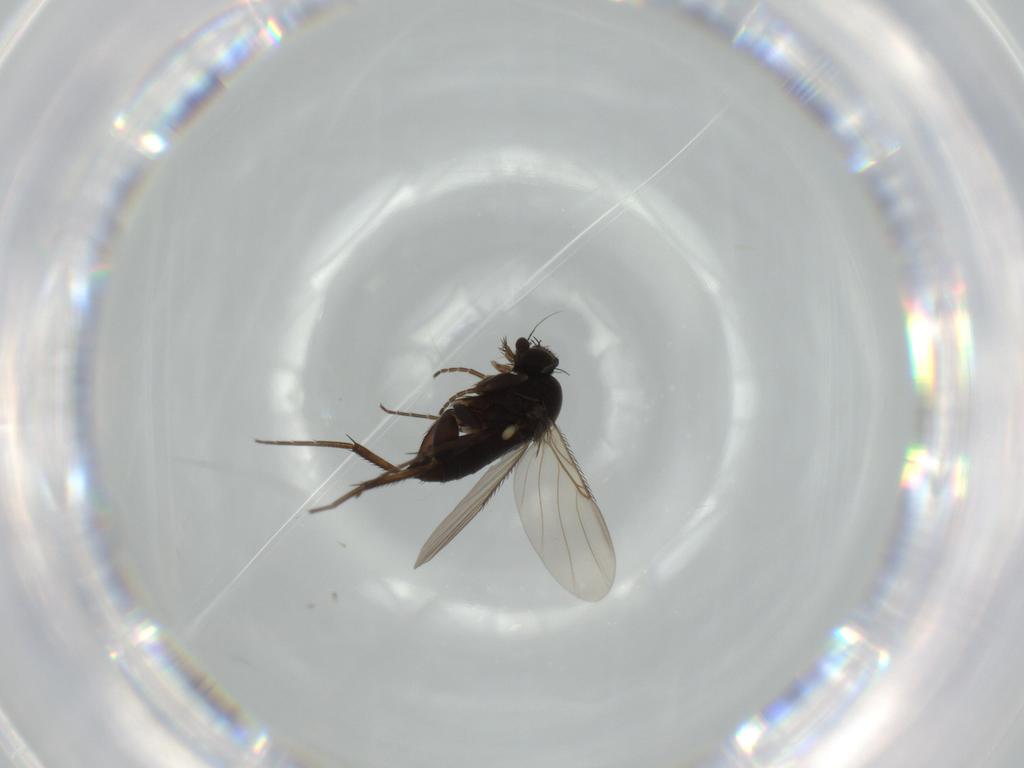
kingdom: Animalia
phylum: Arthropoda
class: Insecta
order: Diptera
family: Phoridae
